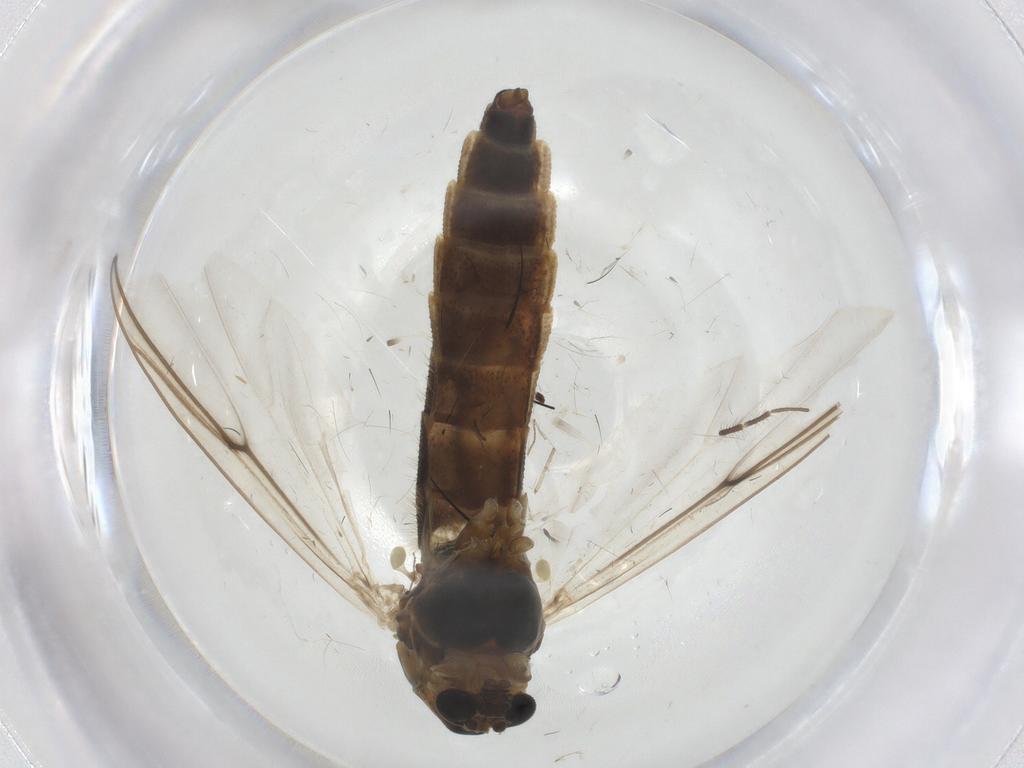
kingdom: Animalia
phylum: Arthropoda
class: Insecta
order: Diptera
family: Chironomidae
